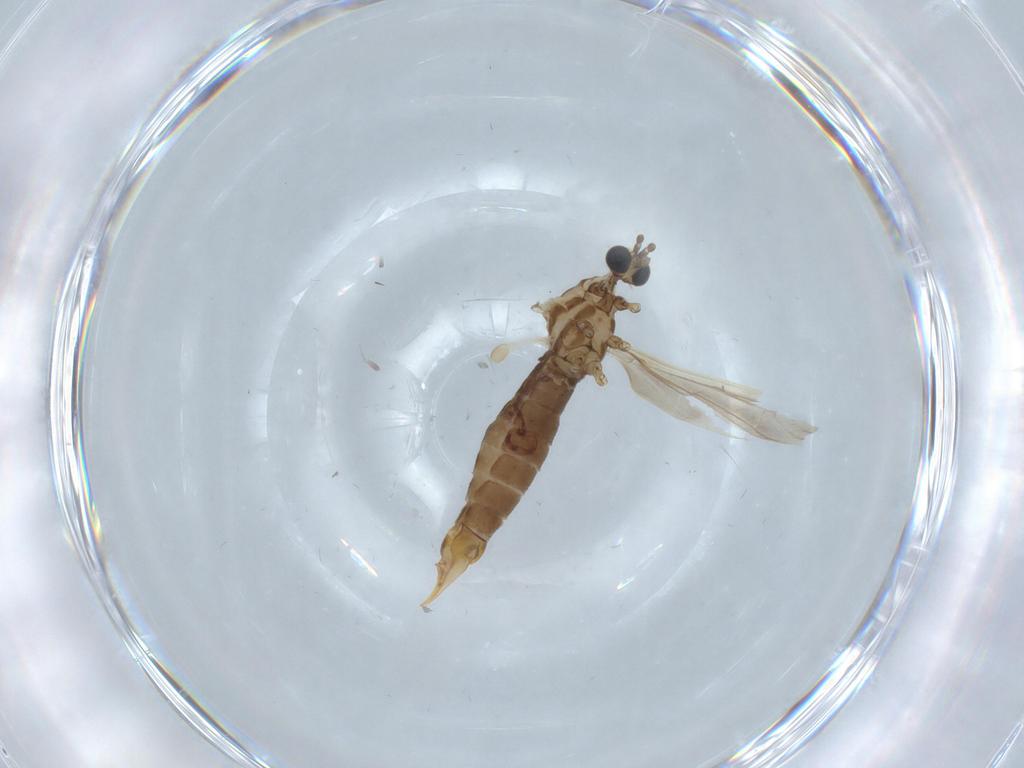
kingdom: Animalia
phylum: Arthropoda
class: Insecta
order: Diptera
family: Limoniidae
